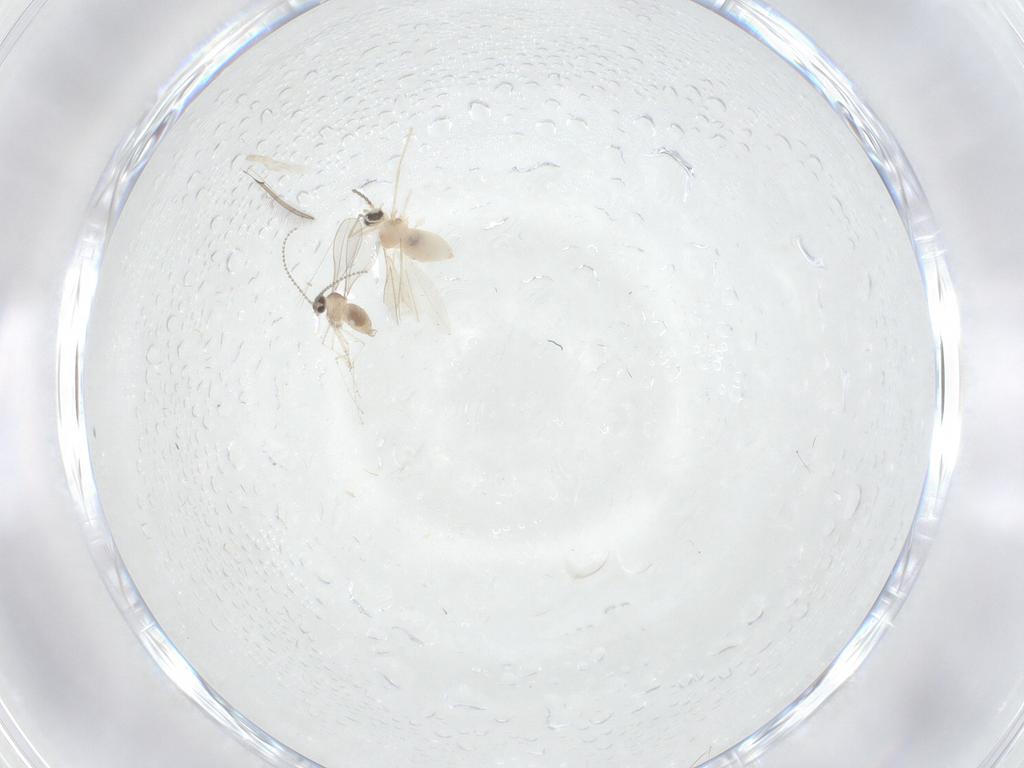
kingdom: Animalia
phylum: Arthropoda
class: Insecta
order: Diptera
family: Cecidomyiidae
